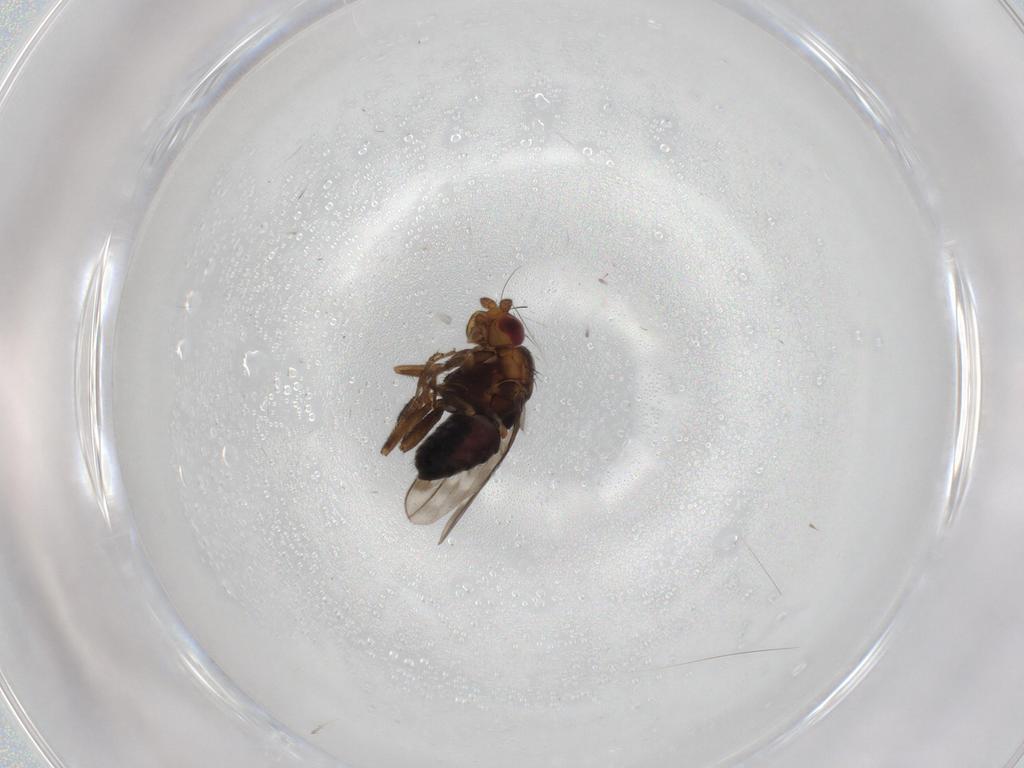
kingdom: Animalia
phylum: Arthropoda
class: Insecta
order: Diptera
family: Sphaeroceridae
